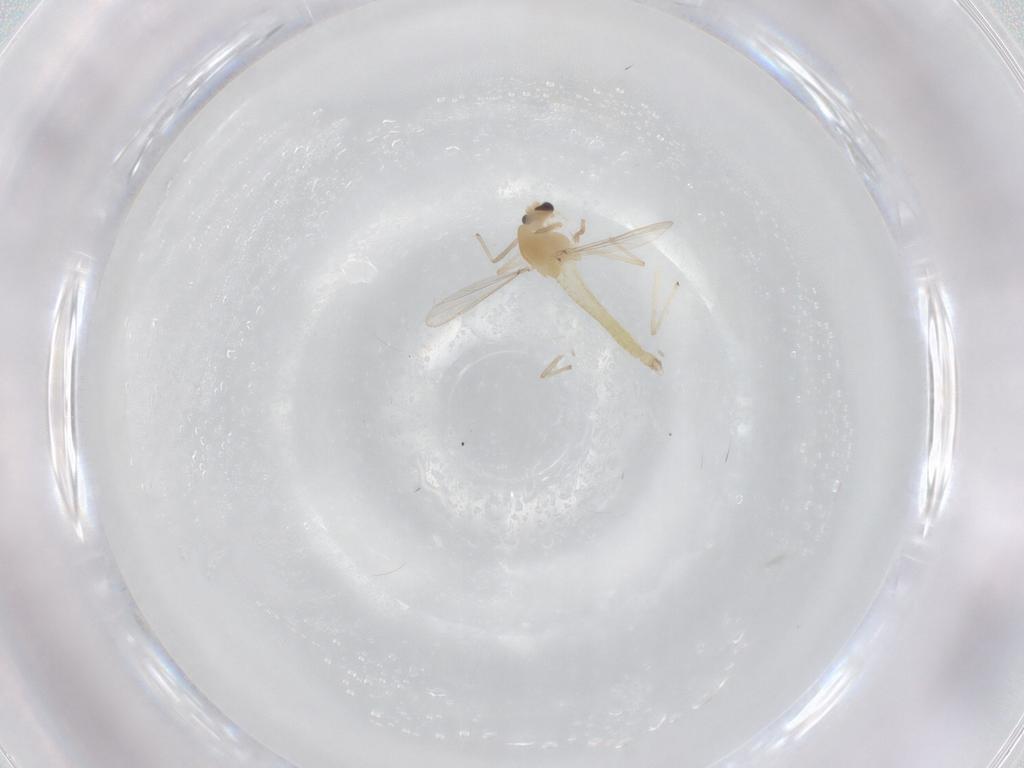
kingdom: Animalia
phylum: Arthropoda
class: Insecta
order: Diptera
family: Chironomidae
